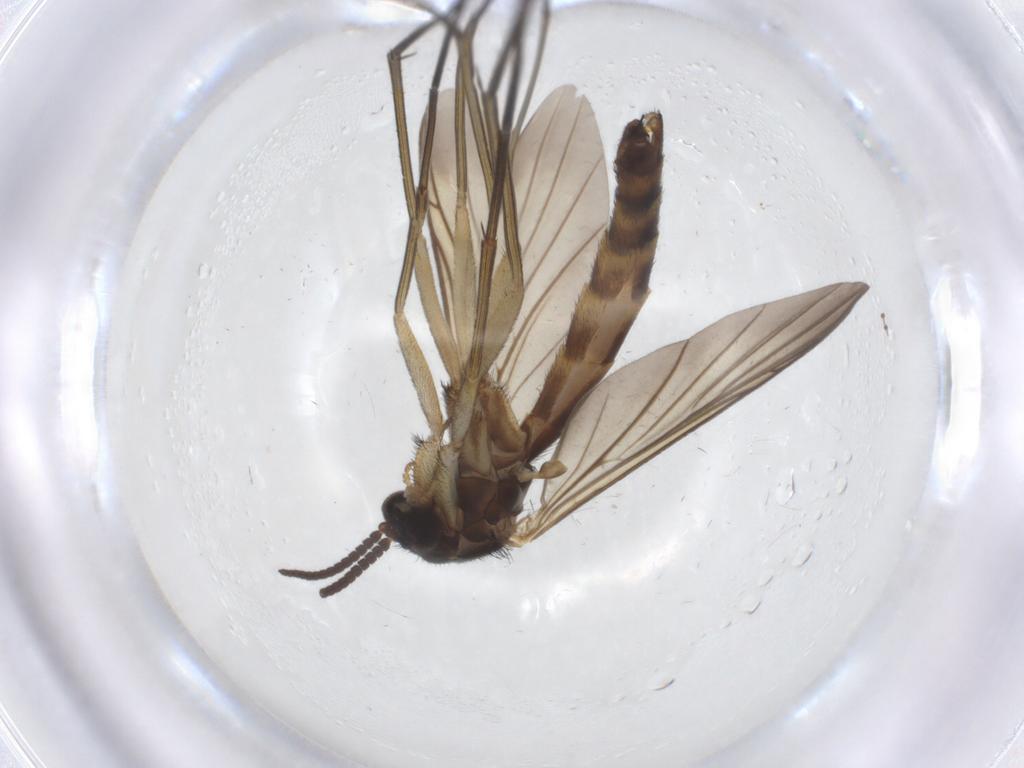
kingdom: Animalia
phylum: Arthropoda
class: Insecta
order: Diptera
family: Keroplatidae
